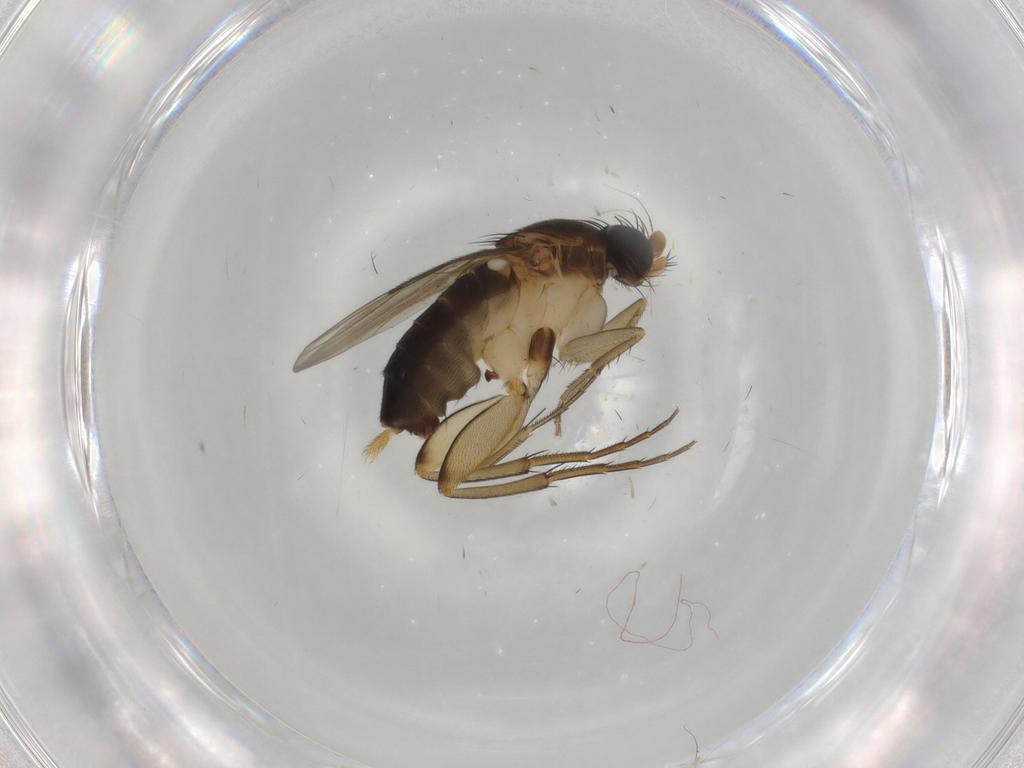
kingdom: Animalia
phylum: Arthropoda
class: Insecta
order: Diptera
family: Phoridae
